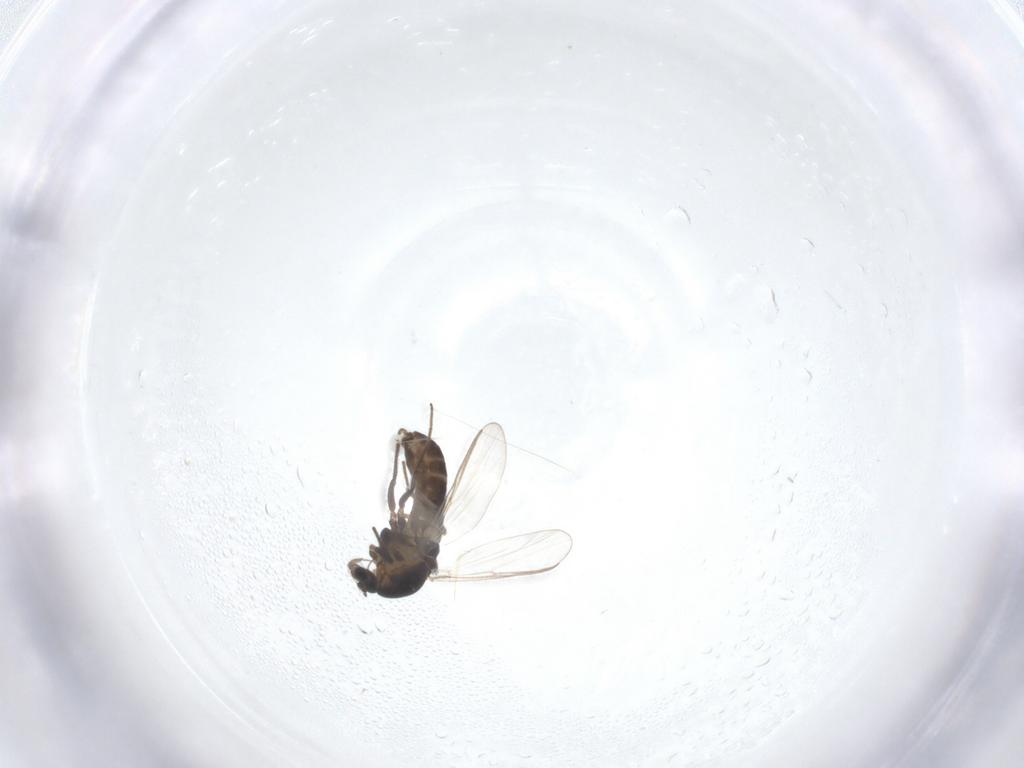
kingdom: Animalia
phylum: Arthropoda
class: Insecta
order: Diptera
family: Chironomidae
